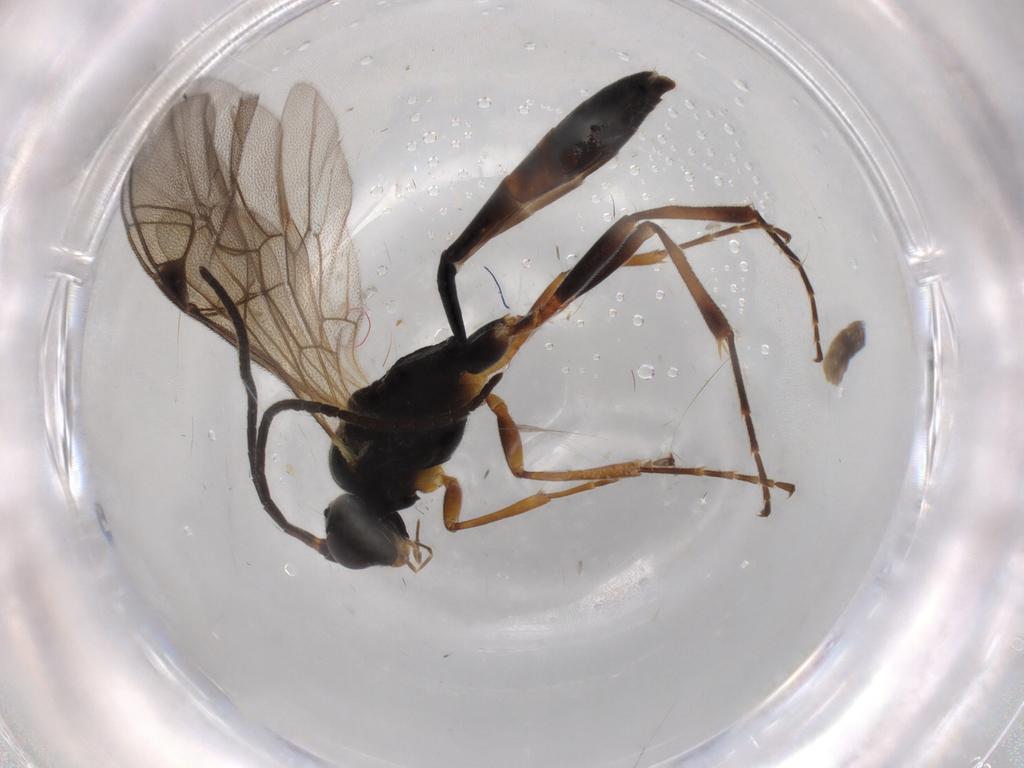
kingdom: Animalia
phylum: Arthropoda
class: Insecta
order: Hymenoptera
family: Ichneumonidae
